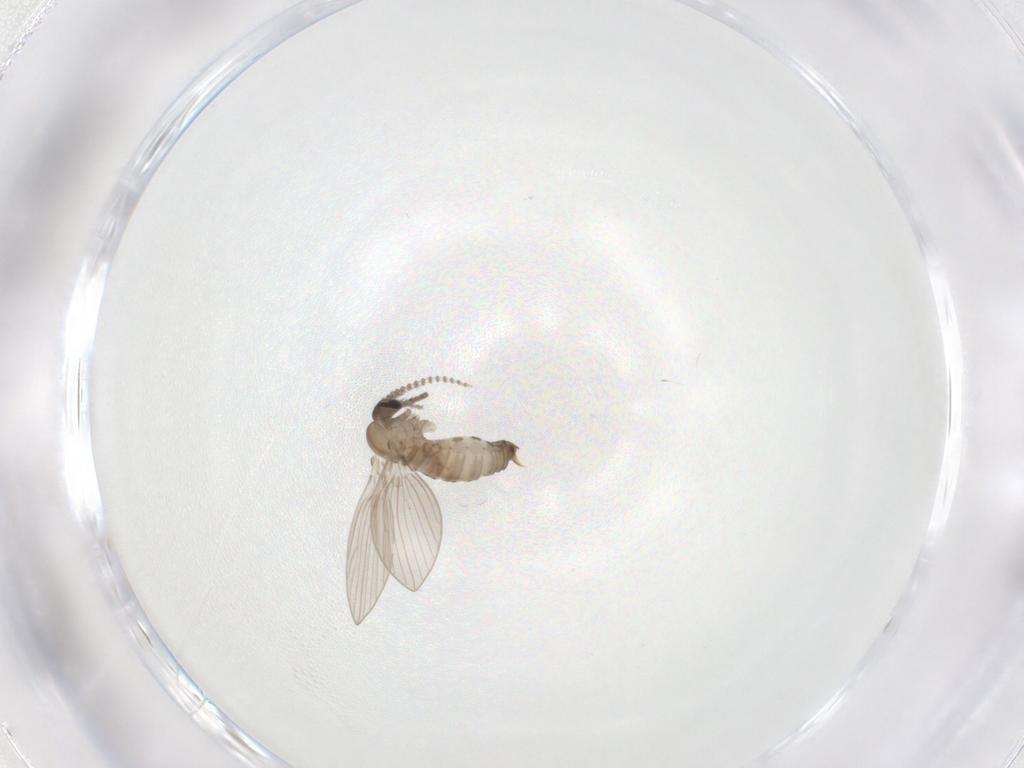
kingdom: Animalia
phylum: Arthropoda
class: Insecta
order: Diptera
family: Psychodidae
